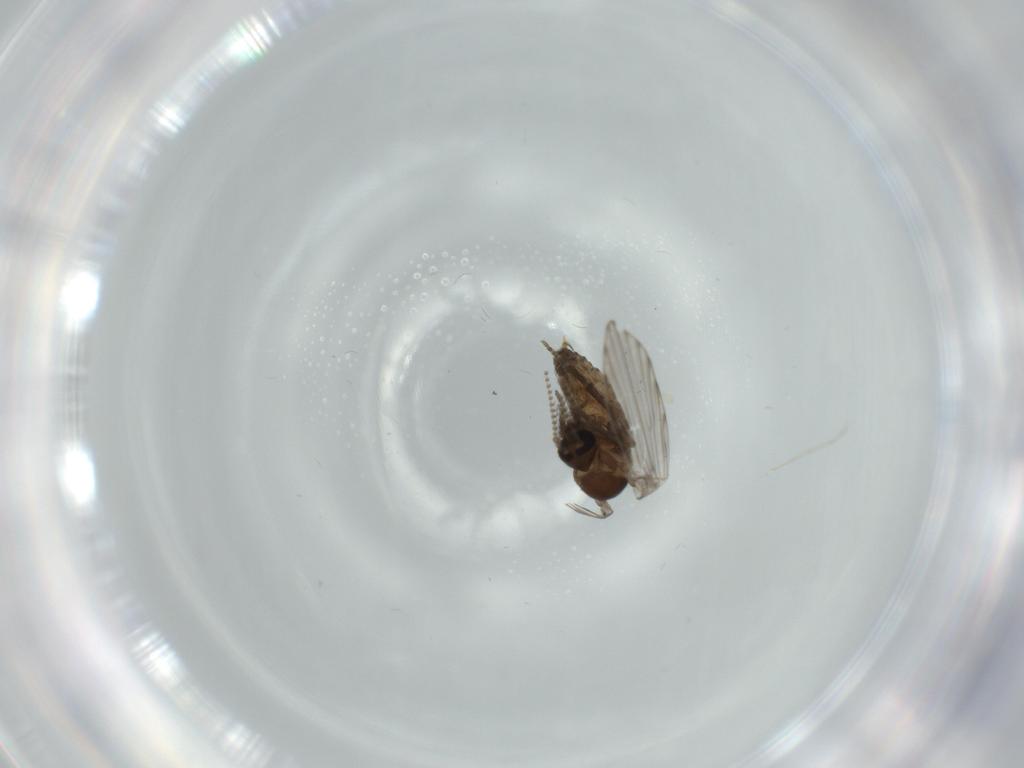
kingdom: Animalia
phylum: Arthropoda
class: Insecta
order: Diptera
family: Psychodidae
